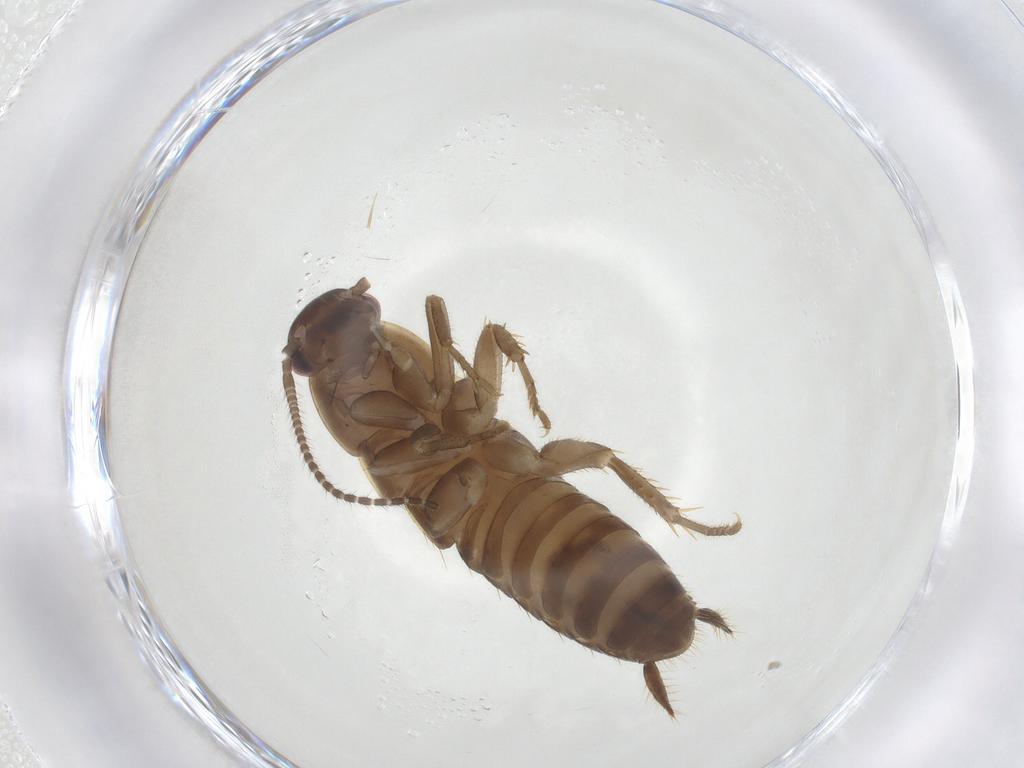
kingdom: Animalia
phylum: Arthropoda
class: Insecta
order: Blattodea
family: Ectobiidae
